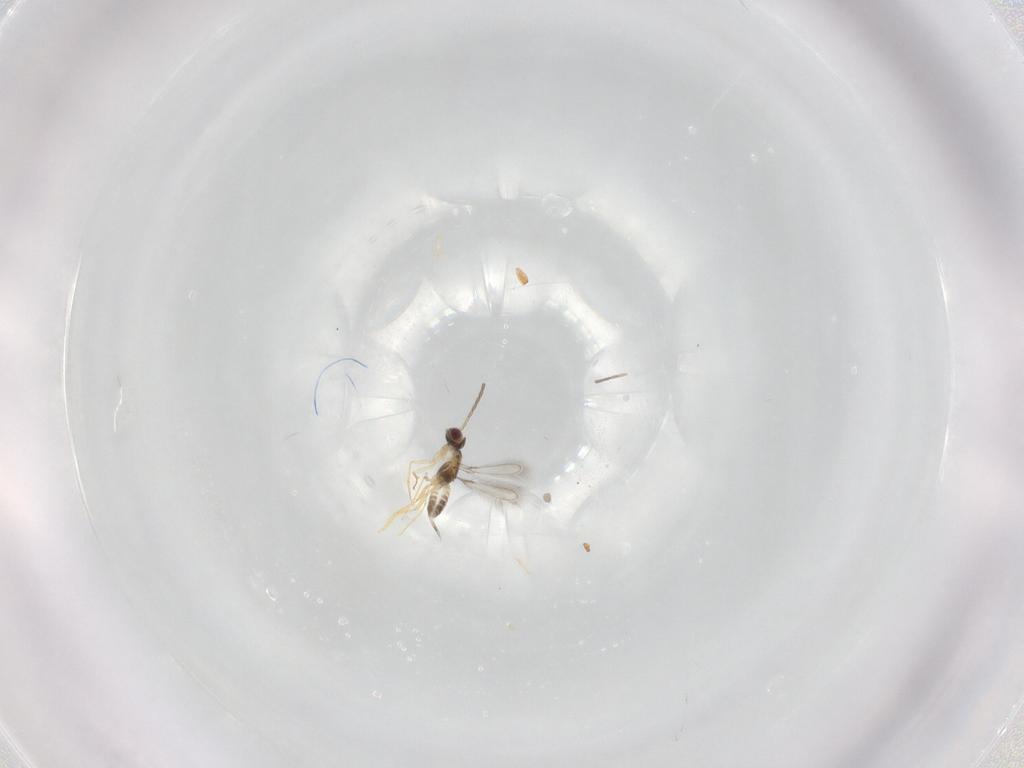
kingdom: Animalia
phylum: Arthropoda
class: Insecta
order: Hymenoptera
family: Mymaridae
